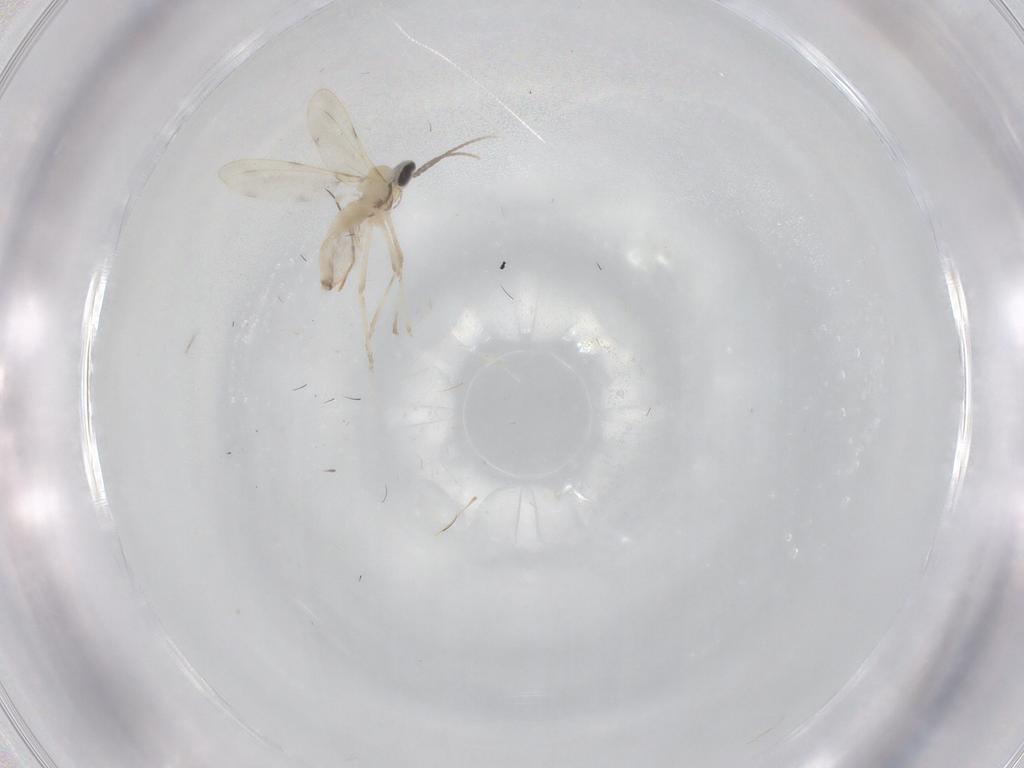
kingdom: Animalia
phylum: Arthropoda
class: Insecta
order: Diptera
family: Cecidomyiidae
